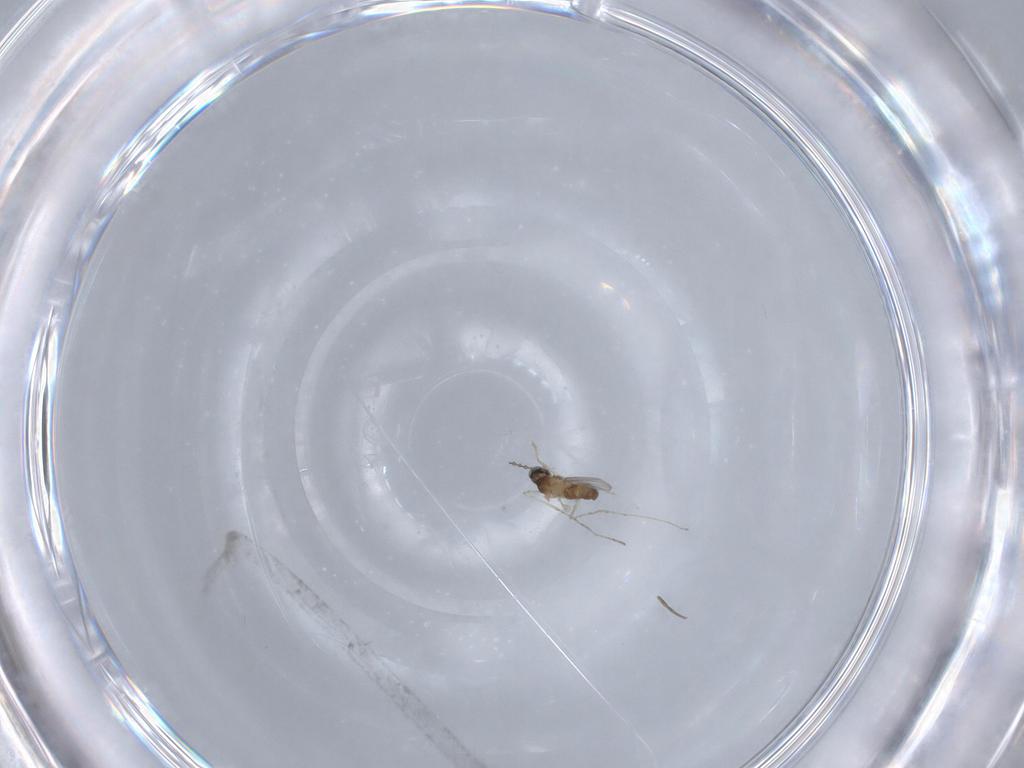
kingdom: Animalia
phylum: Arthropoda
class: Insecta
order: Diptera
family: Cecidomyiidae
